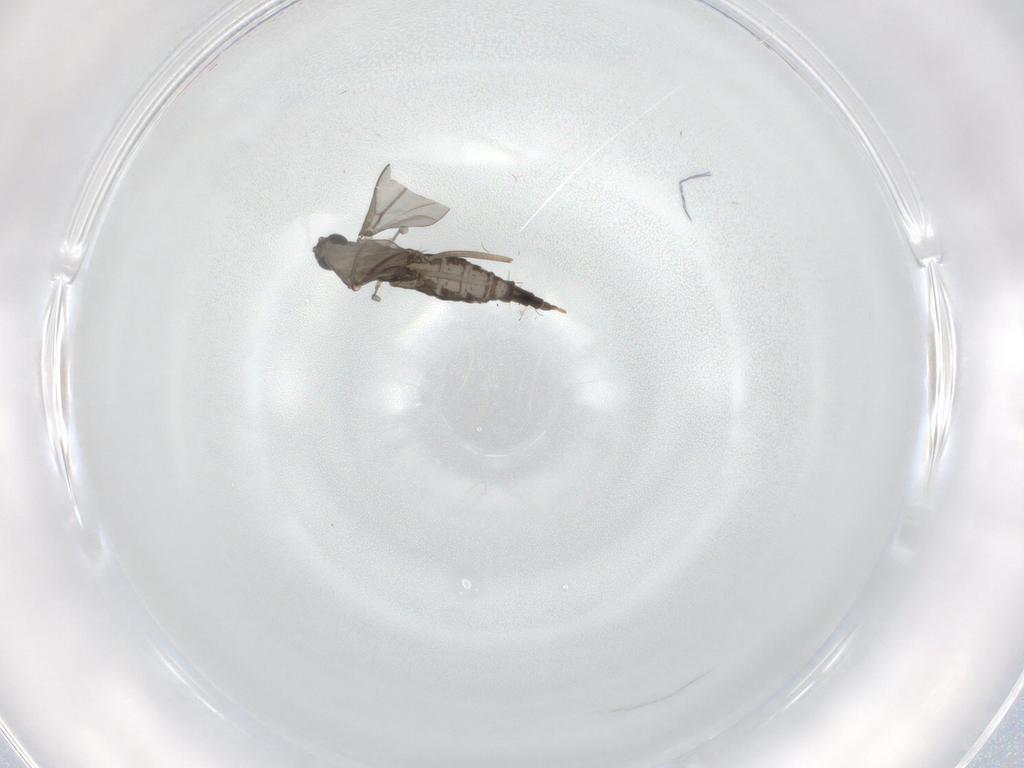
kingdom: Animalia
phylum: Arthropoda
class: Insecta
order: Diptera
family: Cecidomyiidae
